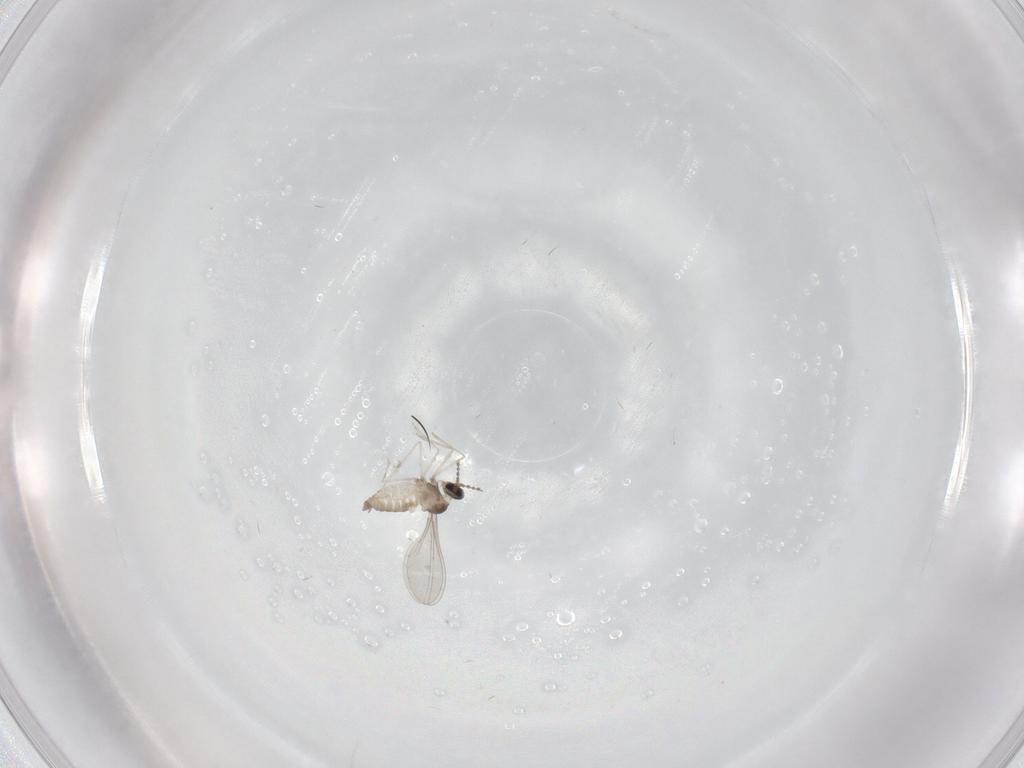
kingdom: Animalia
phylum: Arthropoda
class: Insecta
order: Diptera
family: Cecidomyiidae
